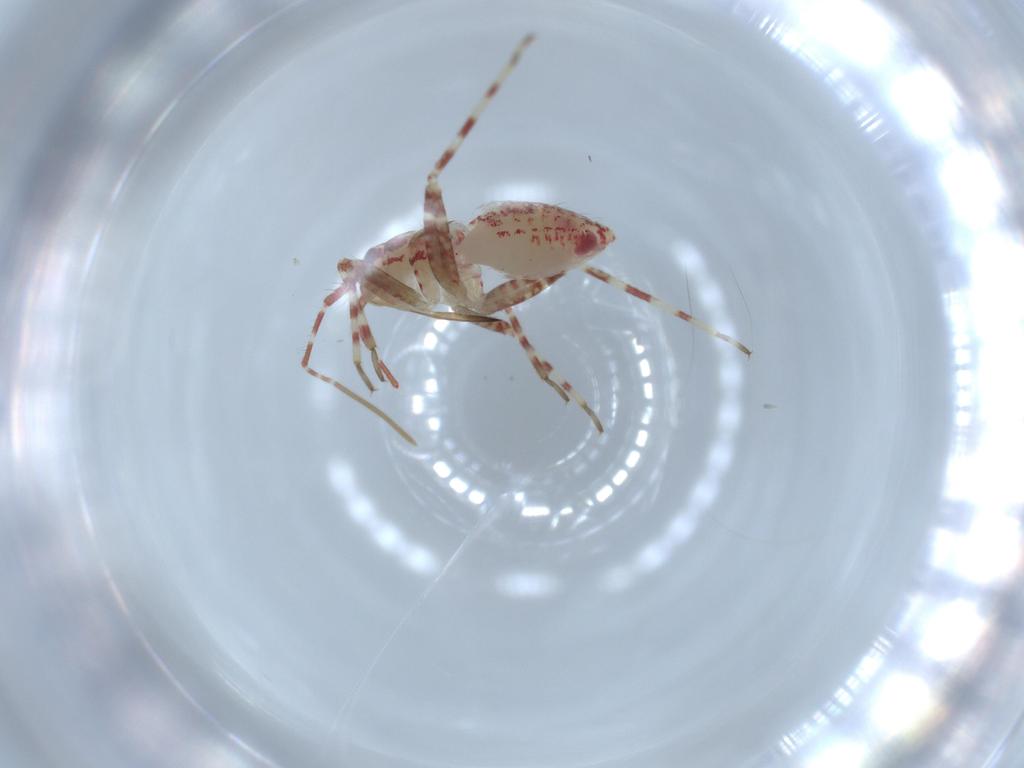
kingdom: Animalia
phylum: Arthropoda
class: Insecta
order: Hemiptera
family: Miridae
